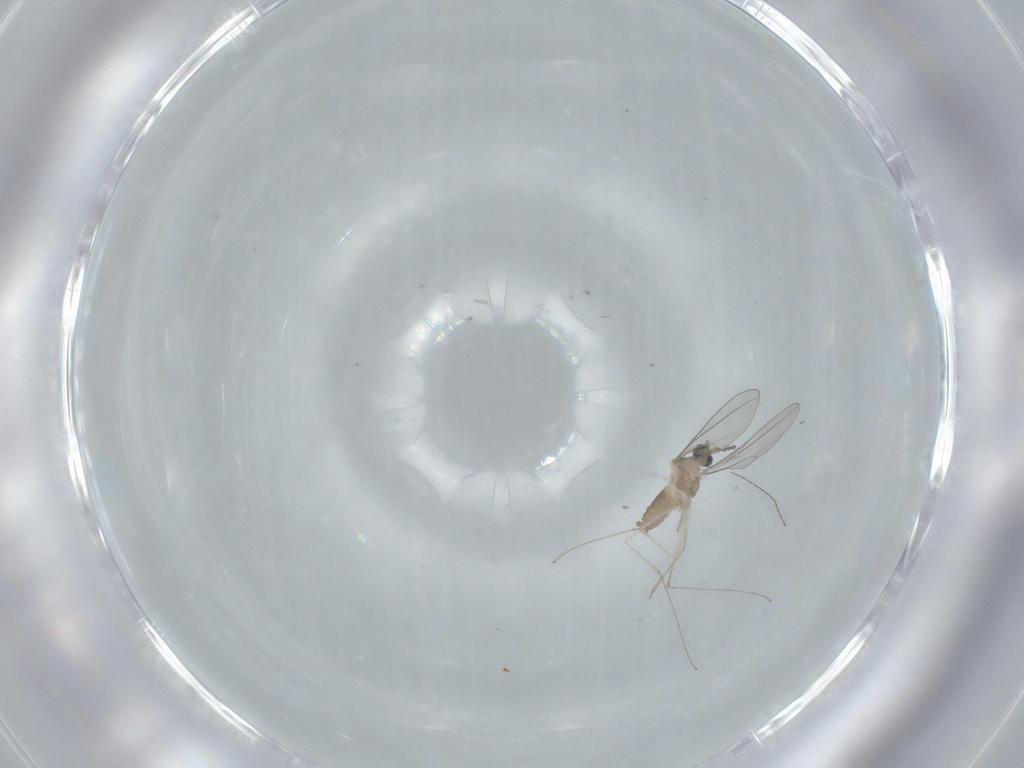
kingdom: Animalia
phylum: Arthropoda
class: Insecta
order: Diptera
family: Cecidomyiidae
